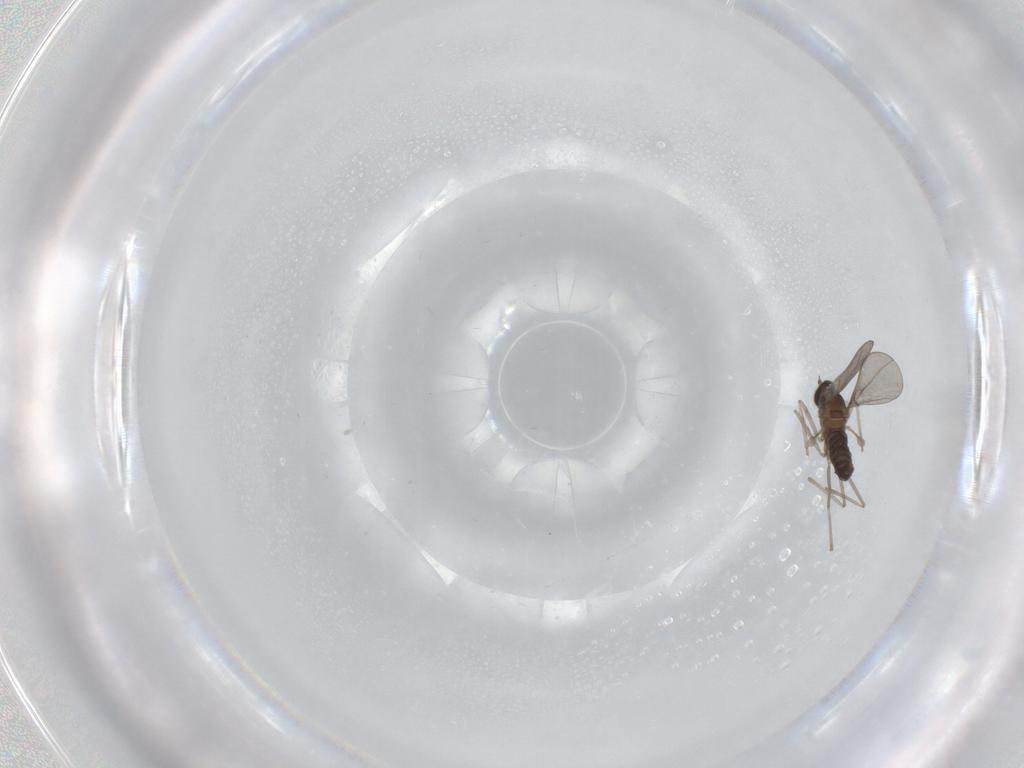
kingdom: Animalia
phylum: Arthropoda
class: Insecta
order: Diptera
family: Cecidomyiidae
